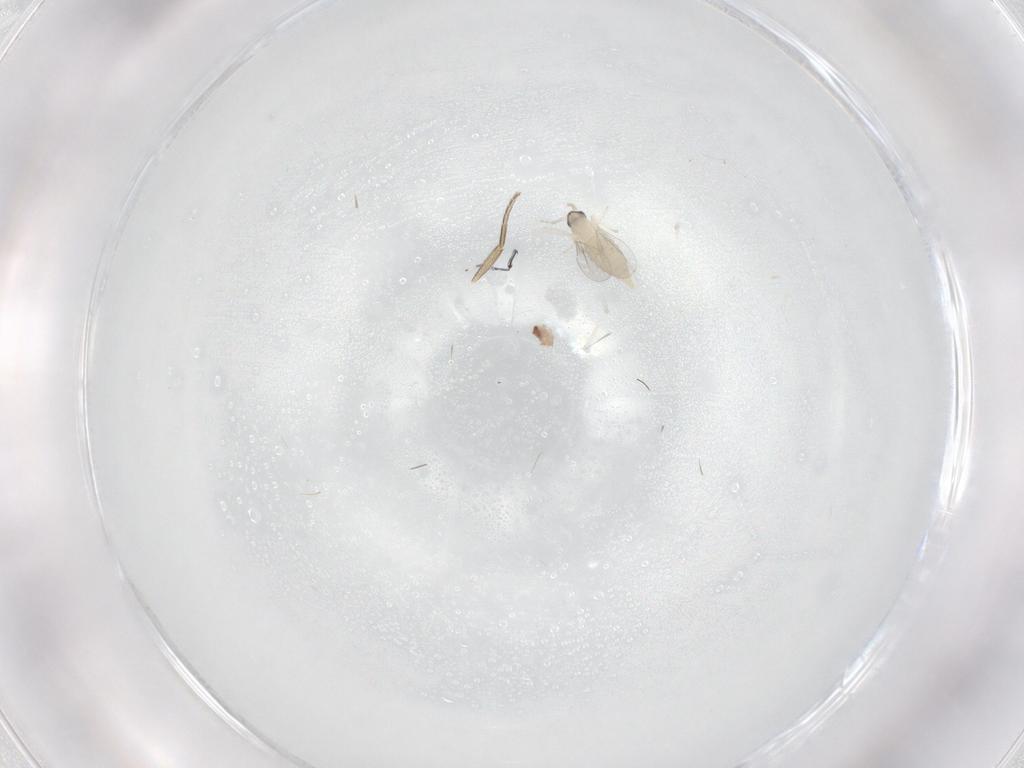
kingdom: Animalia
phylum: Arthropoda
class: Insecta
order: Diptera
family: Cecidomyiidae
